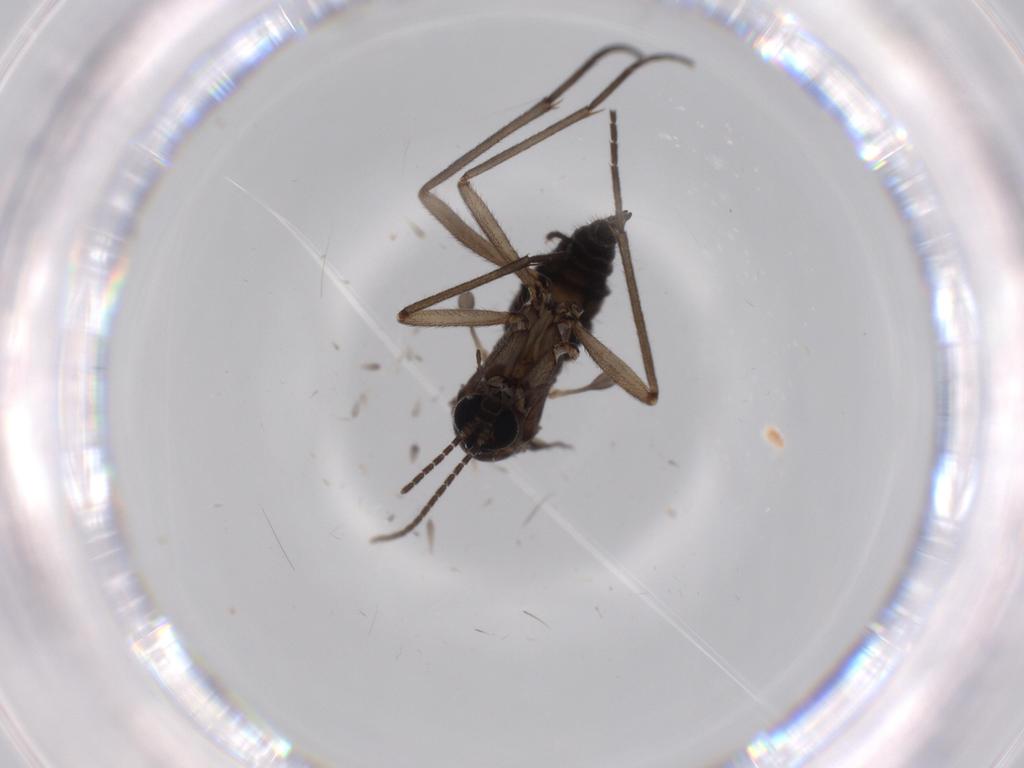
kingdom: Animalia
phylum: Arthropoda
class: Insecta
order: Diptera
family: Sciaridae
